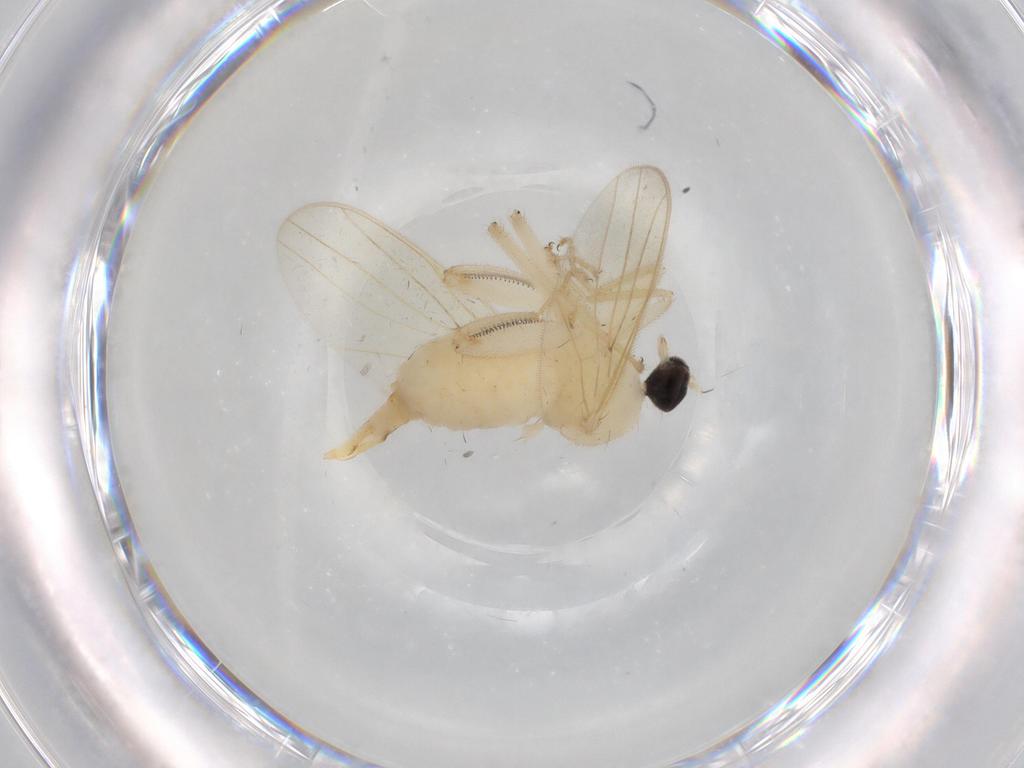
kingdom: Animalia
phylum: Arthropoda
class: Insecta
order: Diptera
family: Hybotidae
